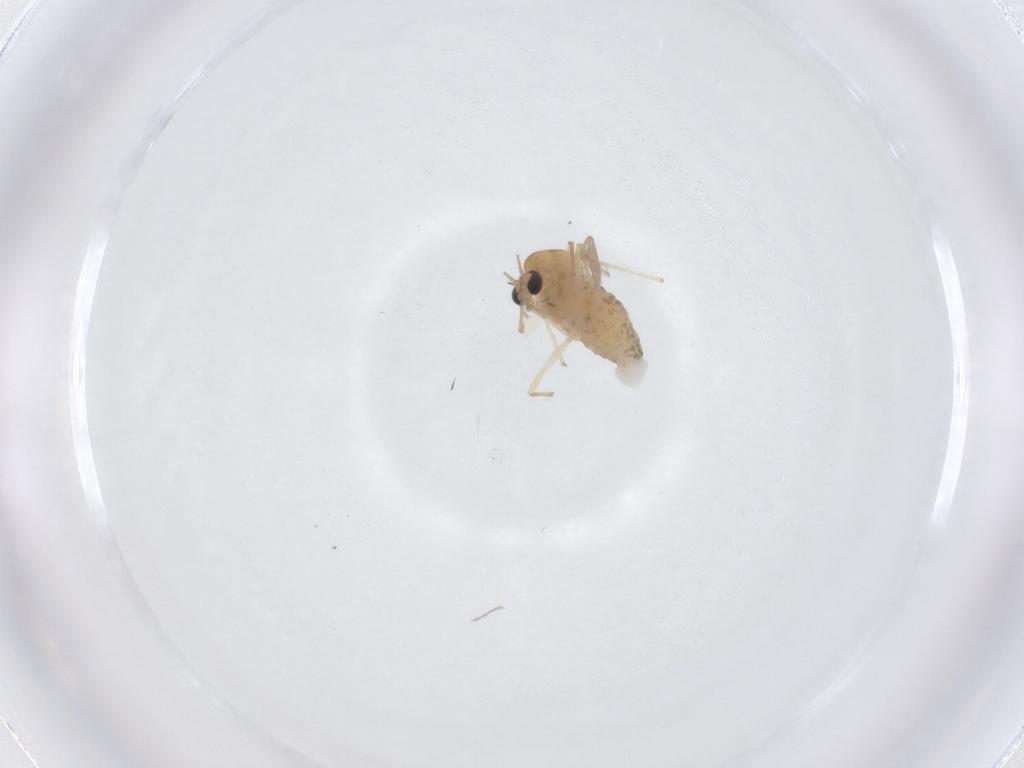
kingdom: Animalia
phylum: Arthropoda
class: Insecta
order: Diptera
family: Chironomidae
